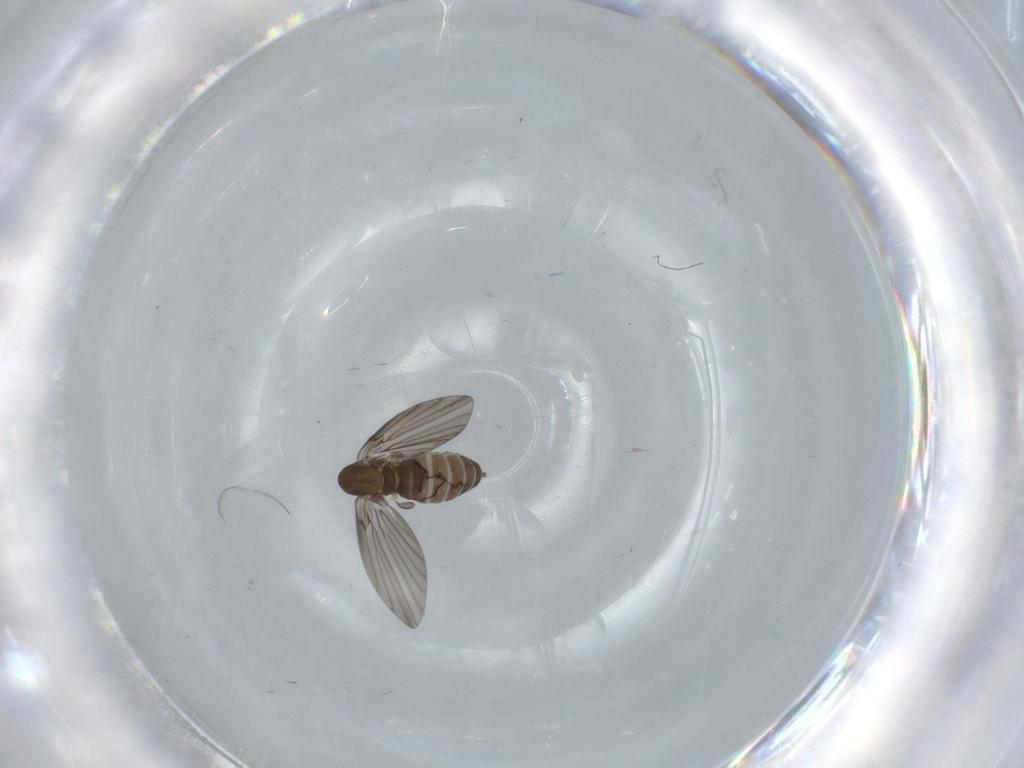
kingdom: Animalia
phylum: Arthropoda
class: Insecta
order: Diptera
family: Psychodidae
